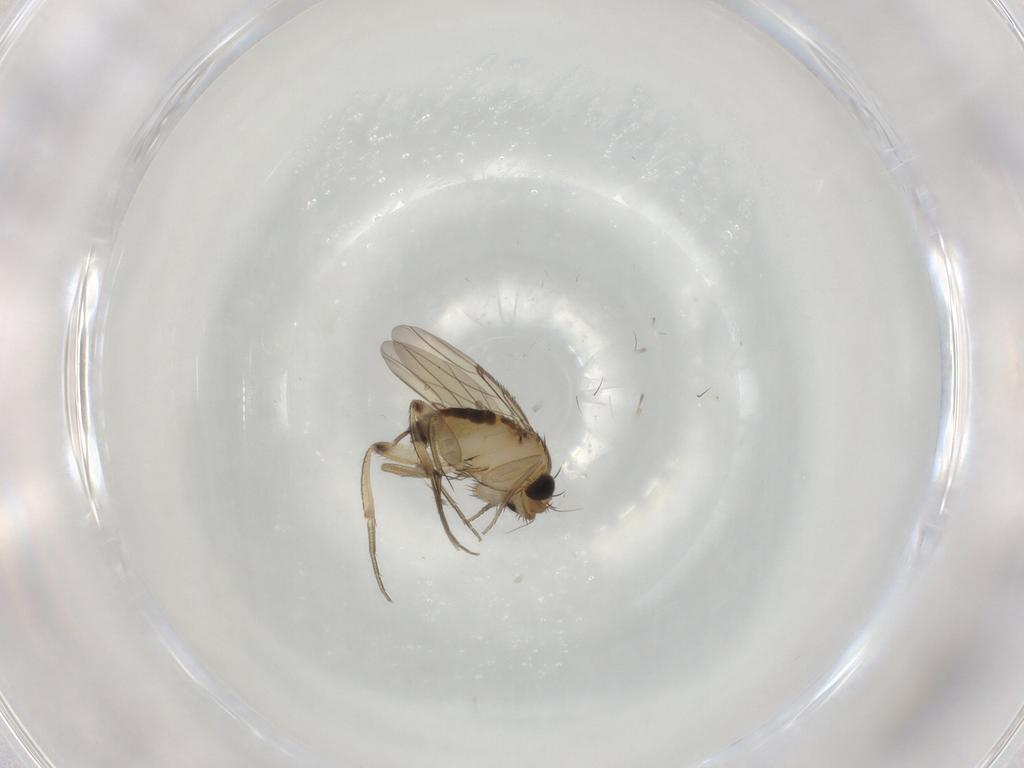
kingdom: Animalia
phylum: Arthropoda
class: Insecta
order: Diptera
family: Phoridae
